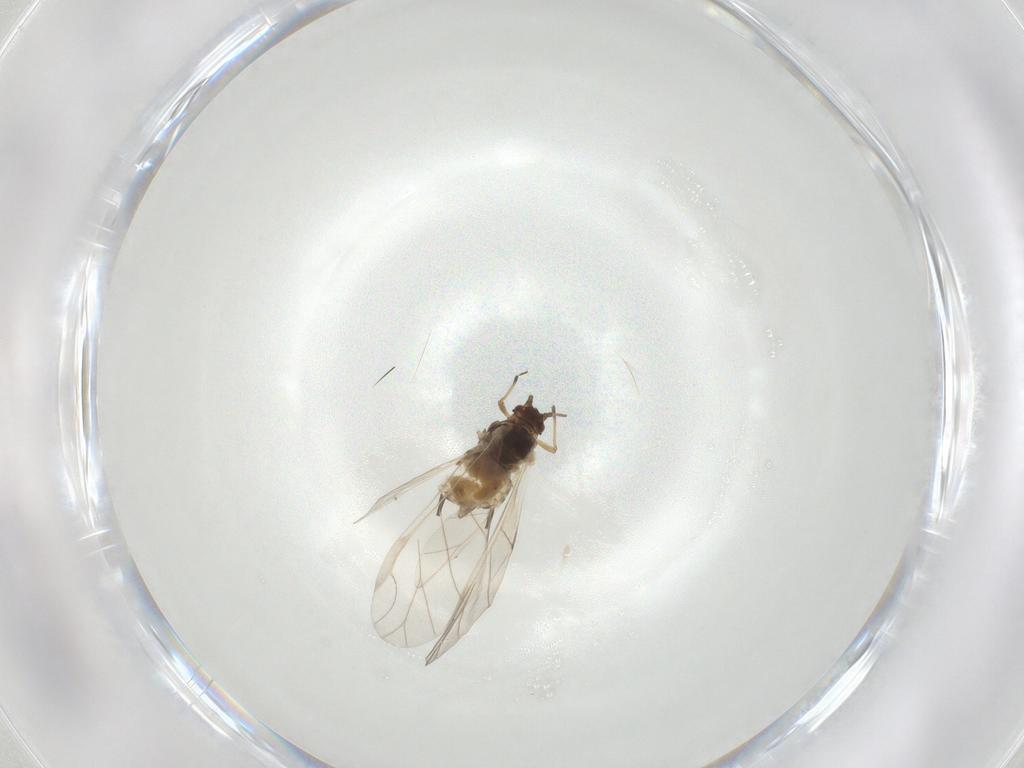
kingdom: Animalia
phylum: Arthropoda
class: Insecta
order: Hemiptera
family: Aphididae
